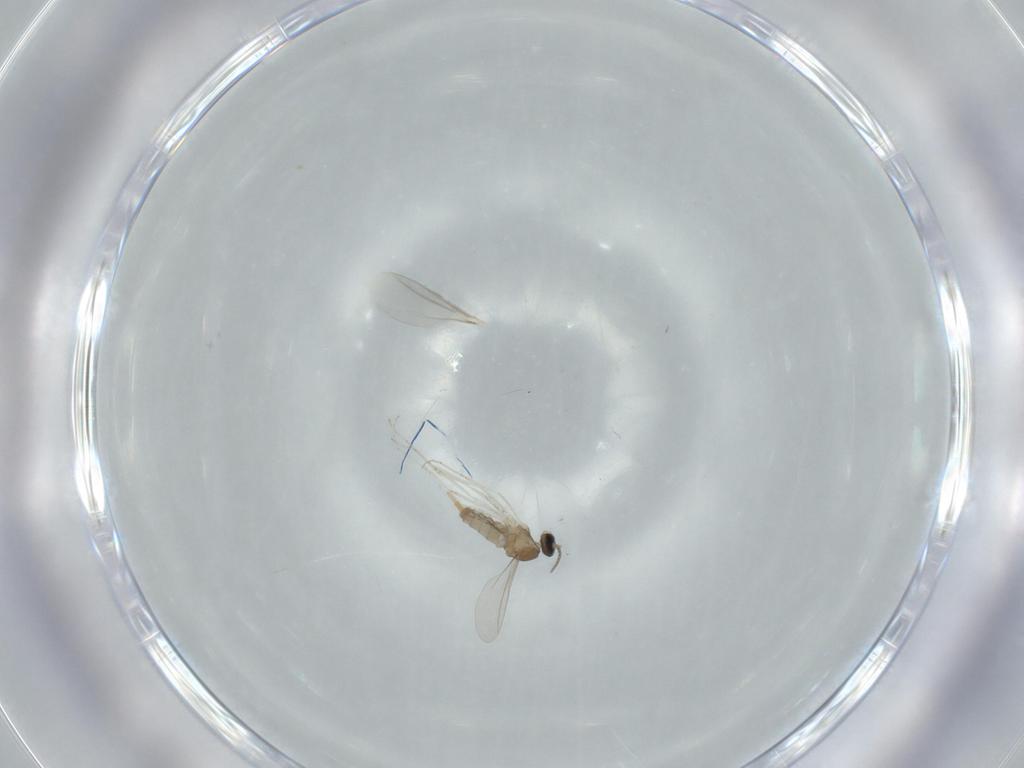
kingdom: Animalia
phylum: Arthropoda
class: Insecta
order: Diptera
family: Cecidomyiidae
